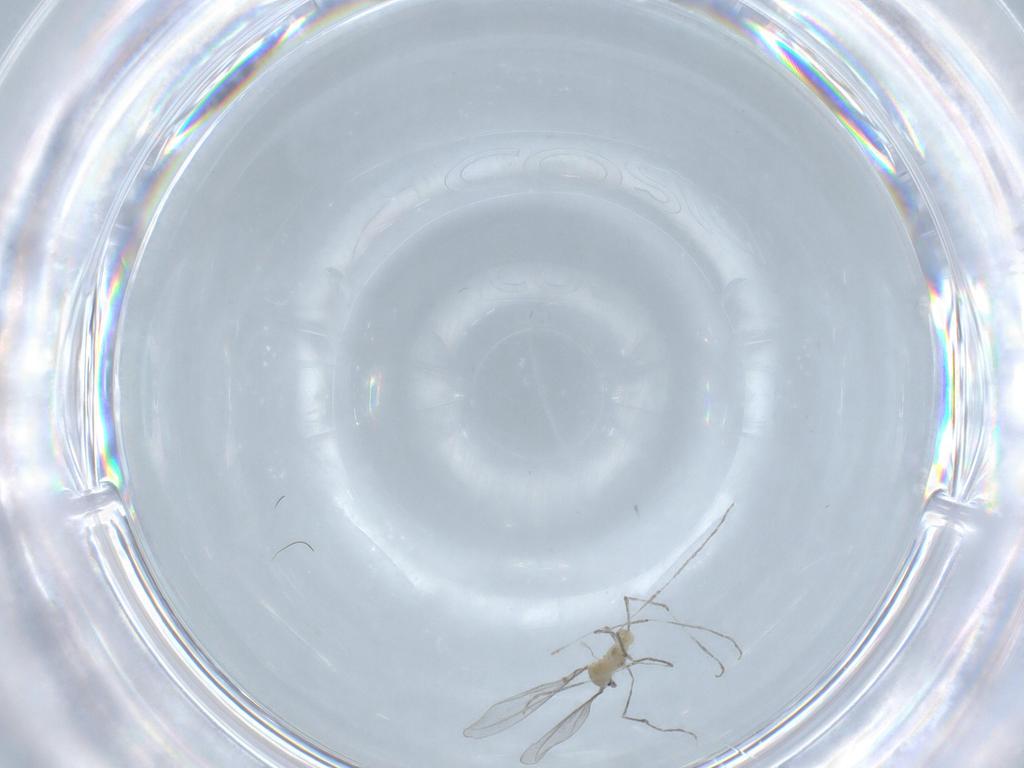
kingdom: Animalia
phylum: Arthropoda
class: Insecta
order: Diptera
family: Cecidomyiidae
